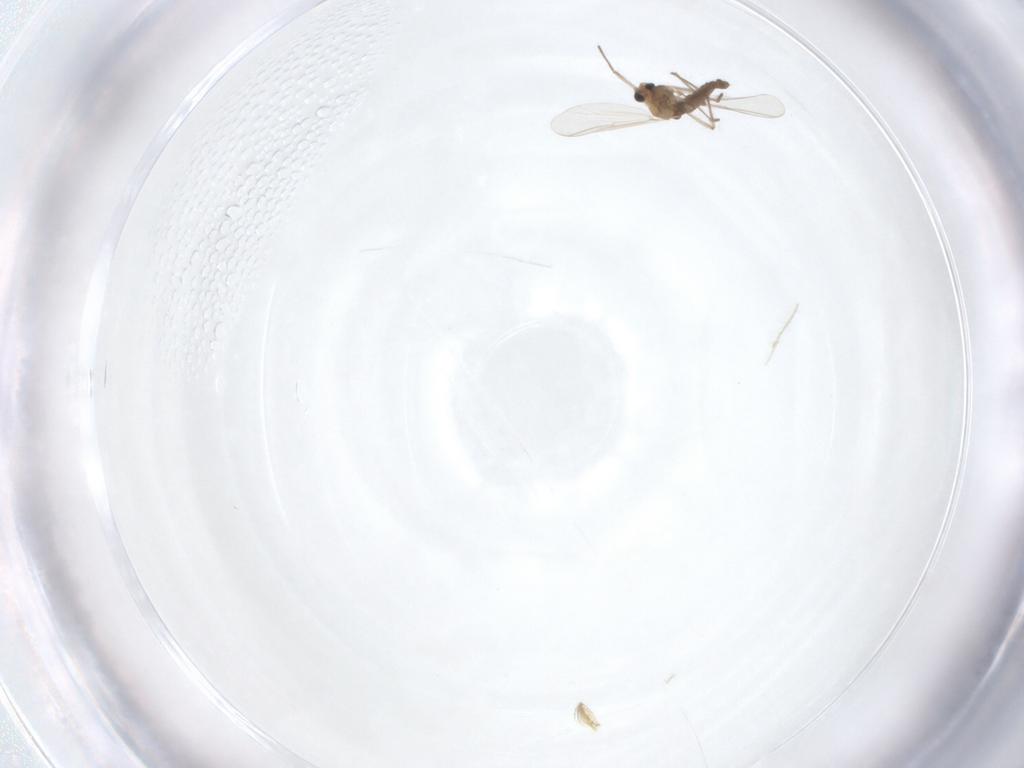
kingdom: Animalia
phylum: Arthropoda
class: Insecta
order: Diptera
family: Chironomidae
